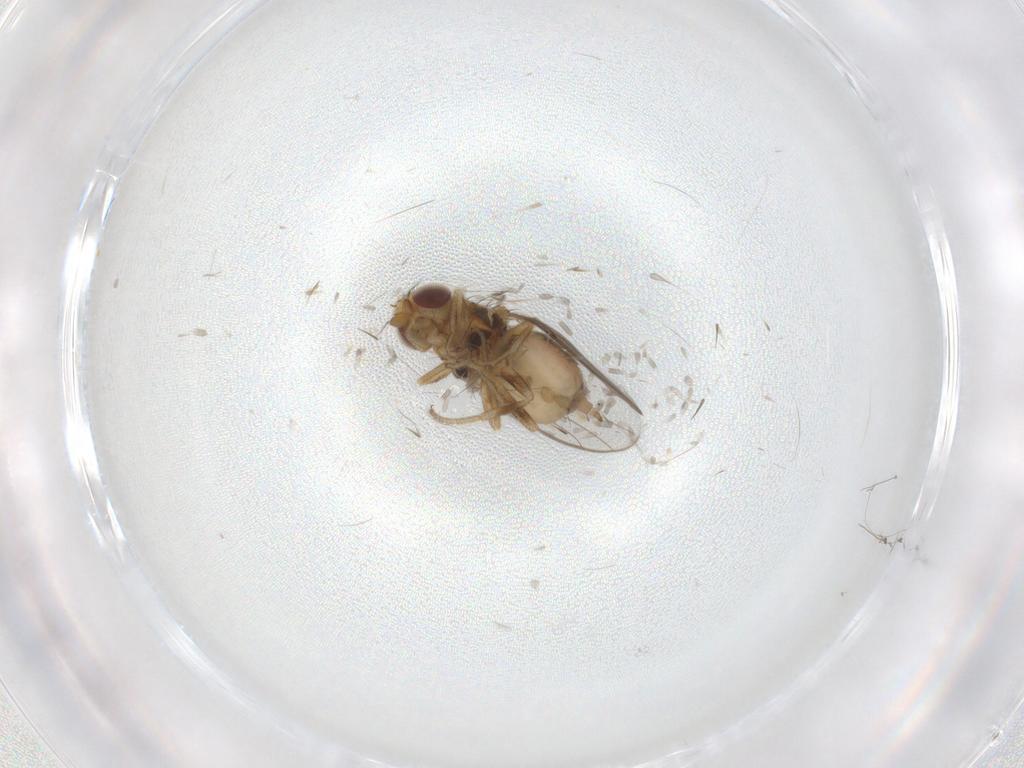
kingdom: Animalia
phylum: Arthropoda
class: Insecta
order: Diptera
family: Chloropidae
